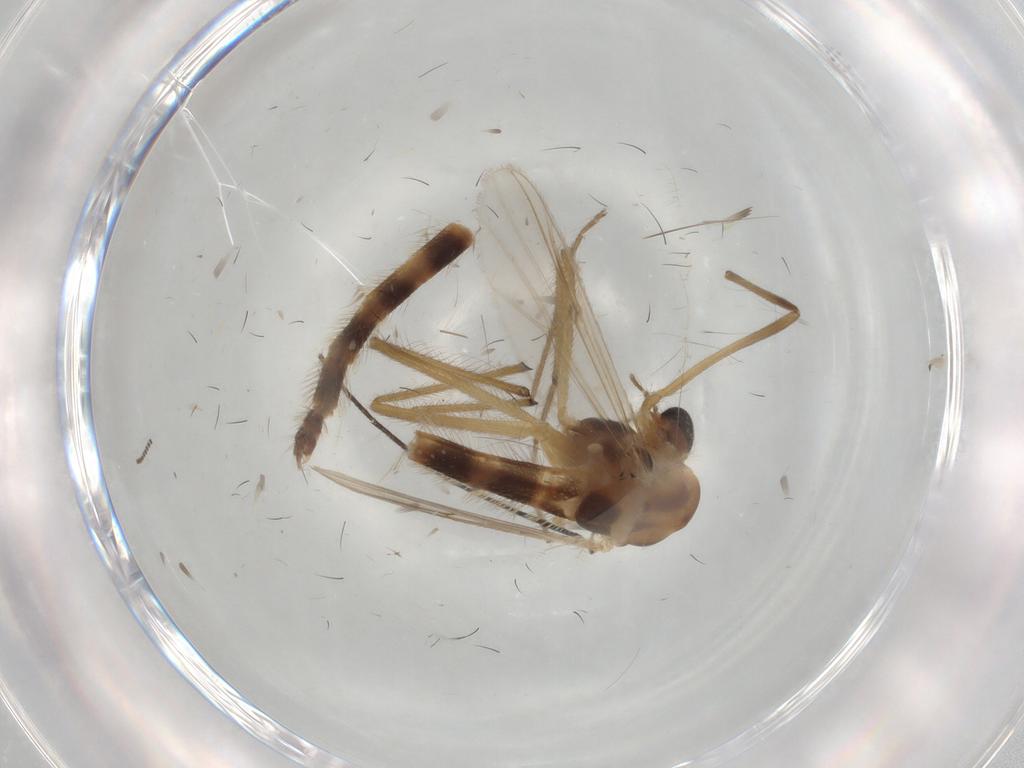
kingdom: Animalia
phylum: Arthropoda
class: Insecta
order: Diptera
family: Chironomidae
